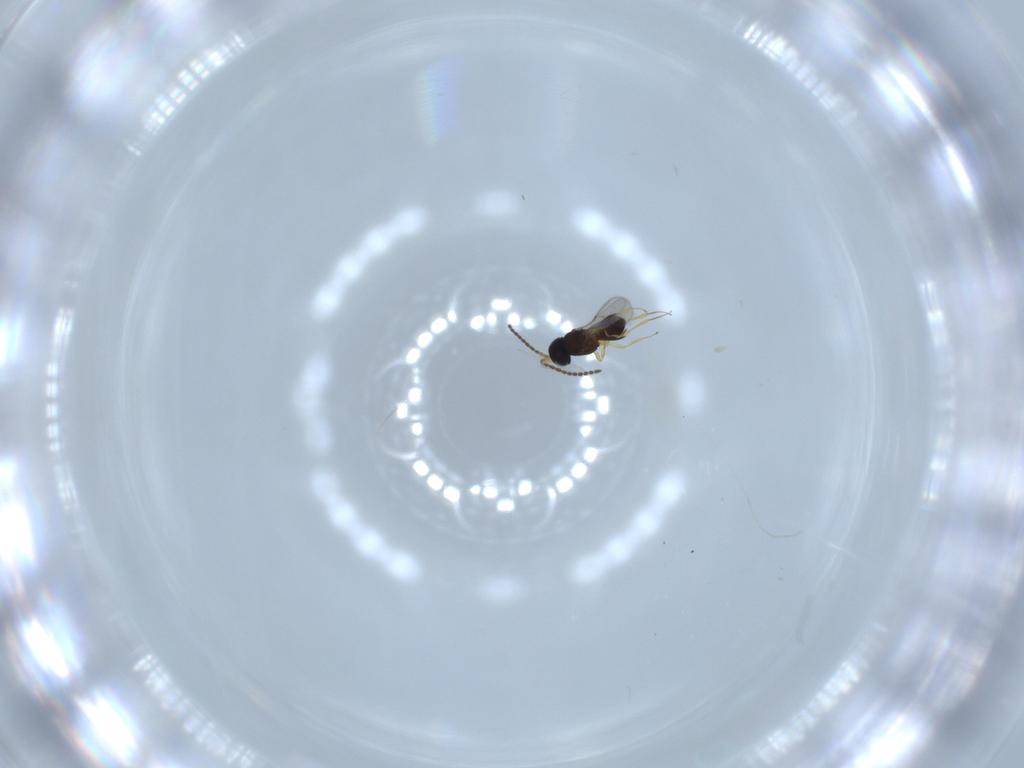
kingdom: Animalia
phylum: Arthropoda
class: Insecta
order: Hymenoptera
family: Scelionidae
